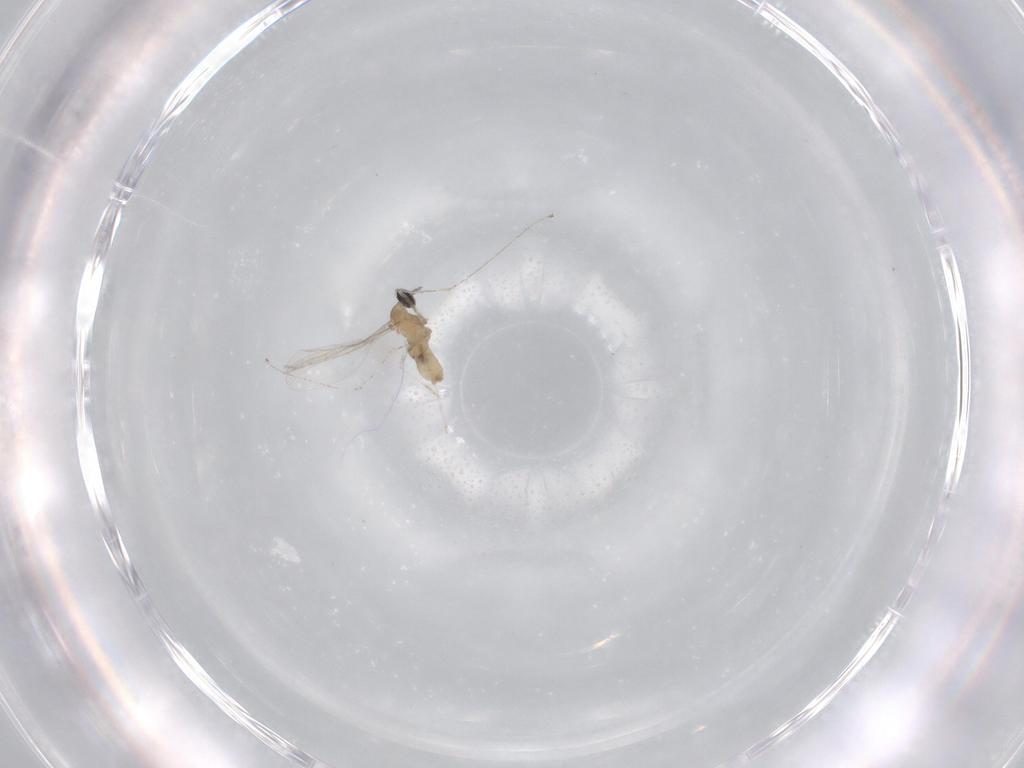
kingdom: Animalia
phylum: Arthropoda
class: Insecta
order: Diptera
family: Cecidomyiidae
